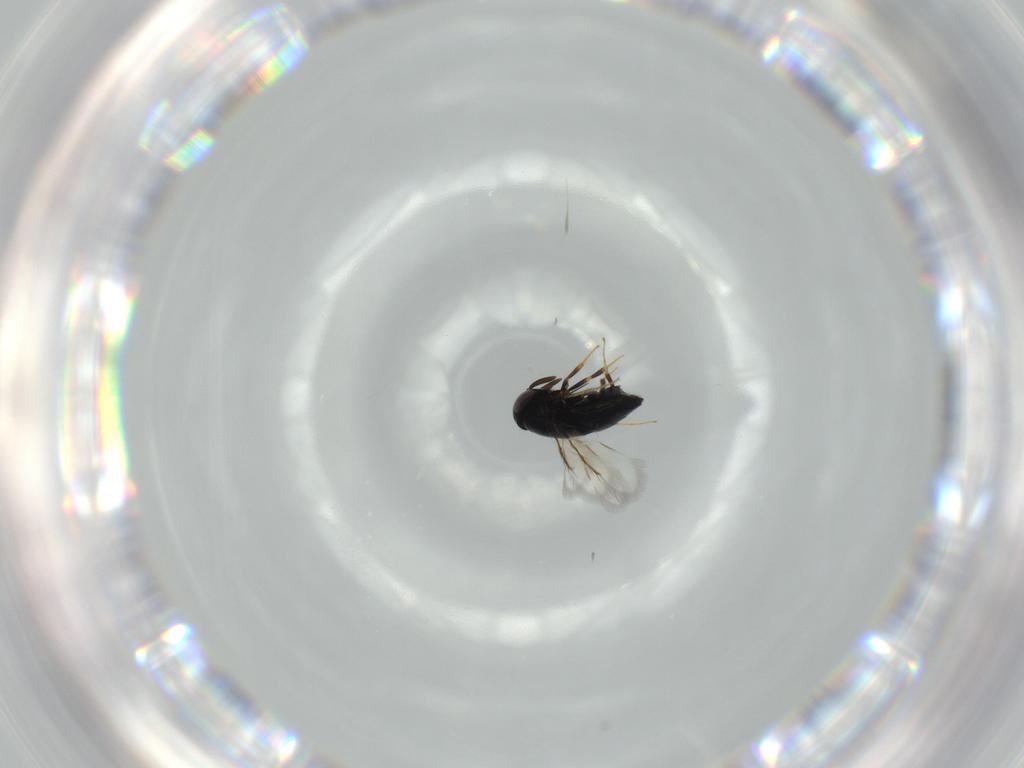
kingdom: Animalia
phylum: Arthropoda
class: Insecta
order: Hymenoptera
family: Signiphoridae
